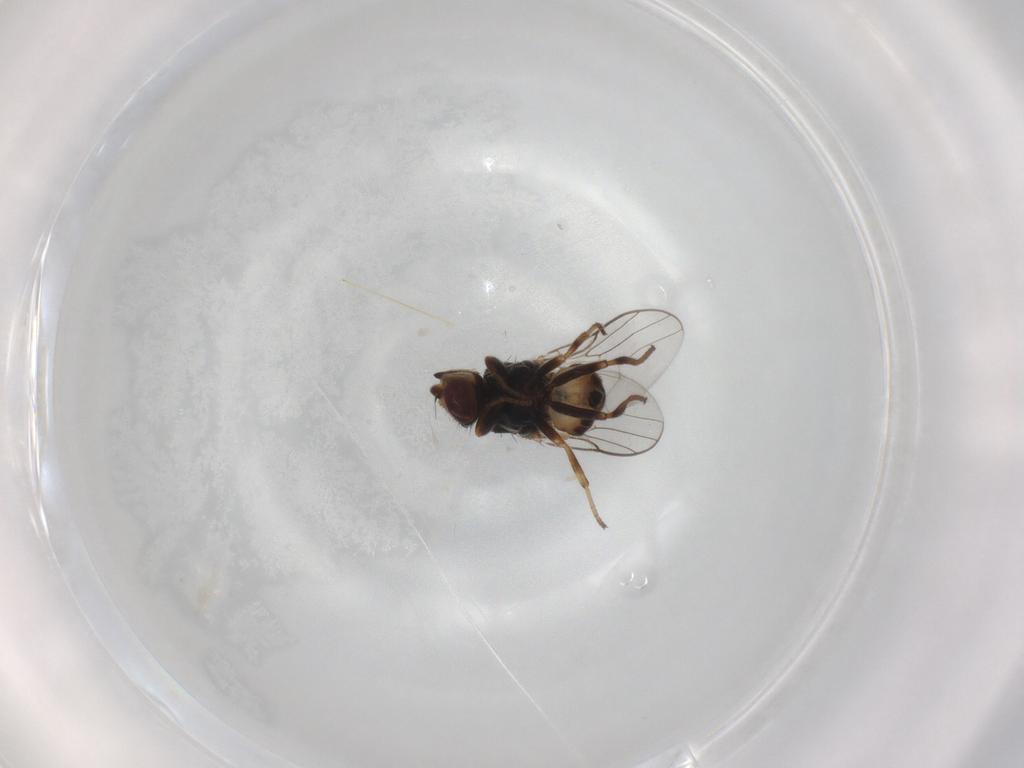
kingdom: Animalia
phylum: Arthropoda
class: Insecta
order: Diptera
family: Chloropidae
